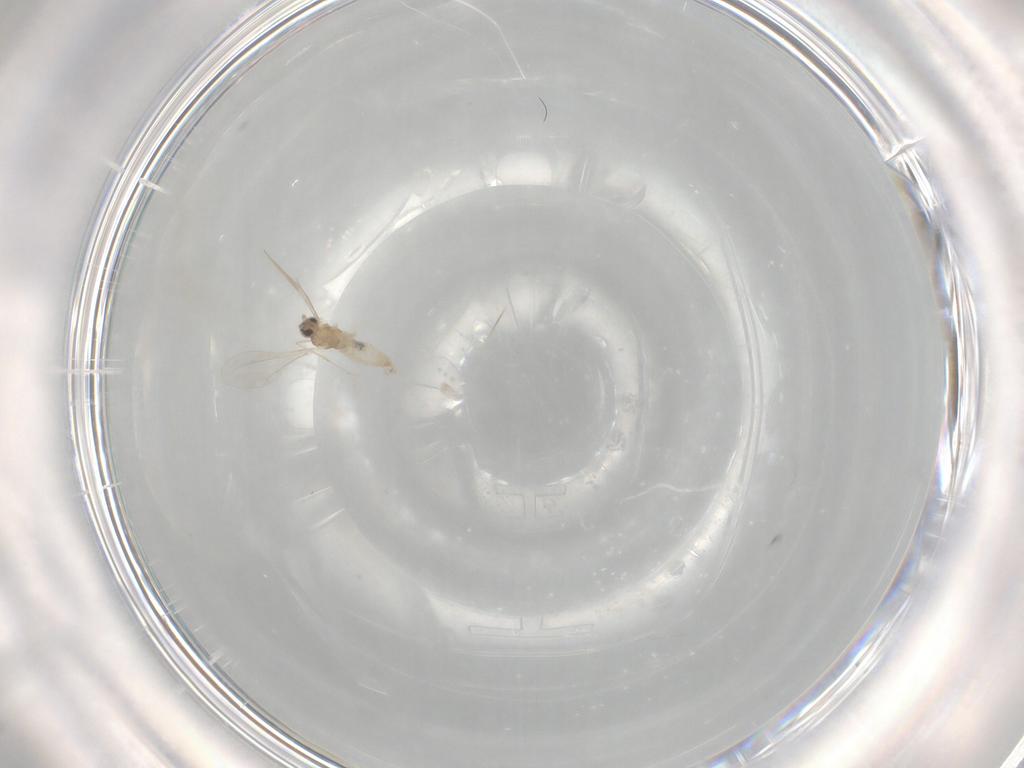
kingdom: Animalia
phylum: Arthropoda
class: Insecta
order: Diptera
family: Cecidomyiidae
